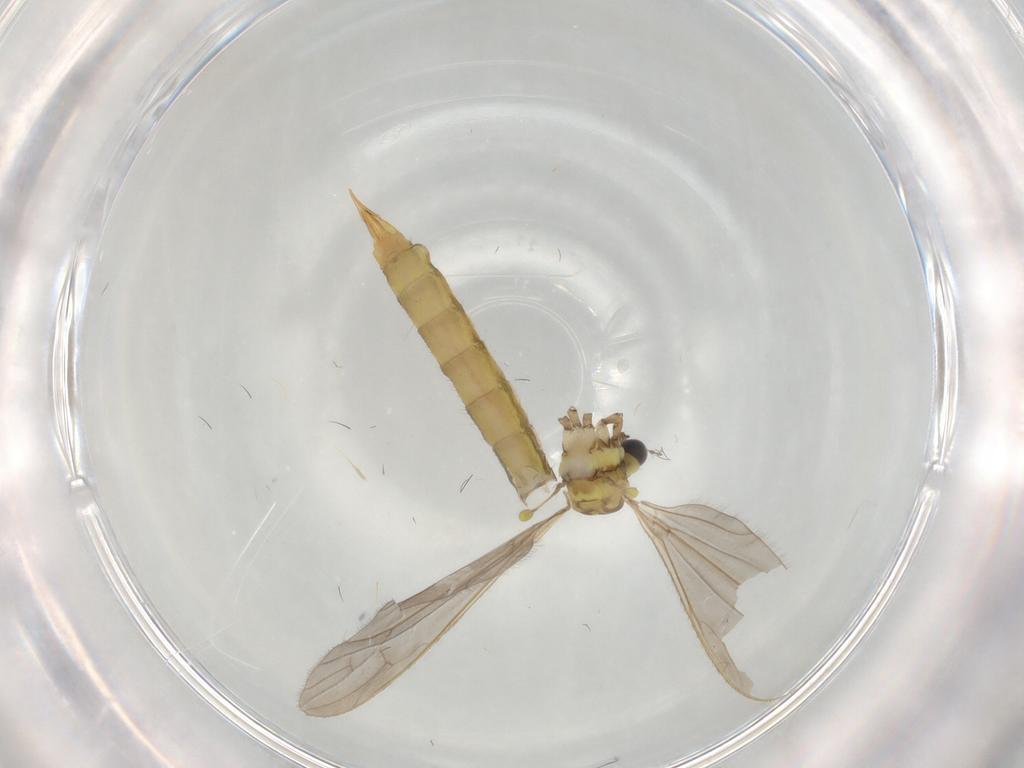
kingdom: Animalia
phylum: Arthropoda
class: Insecta
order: Diptera
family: Limoniidae
